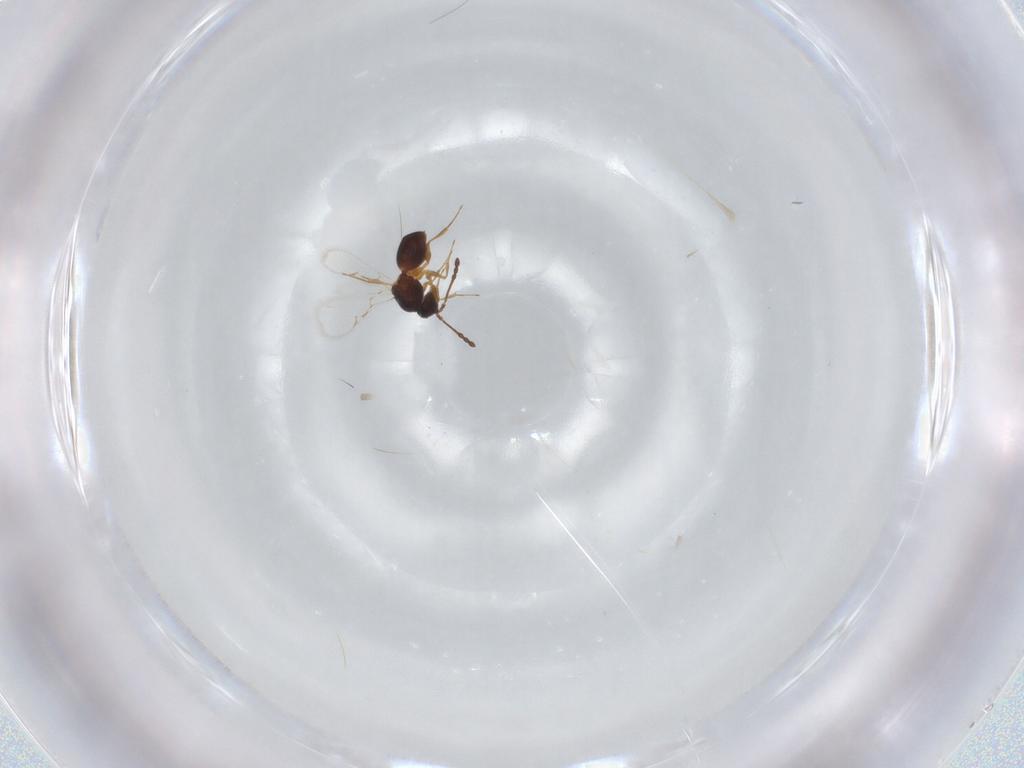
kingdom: Animalia
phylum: Arthropoda
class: Insecta
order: Hymenoptera
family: Figitidae
